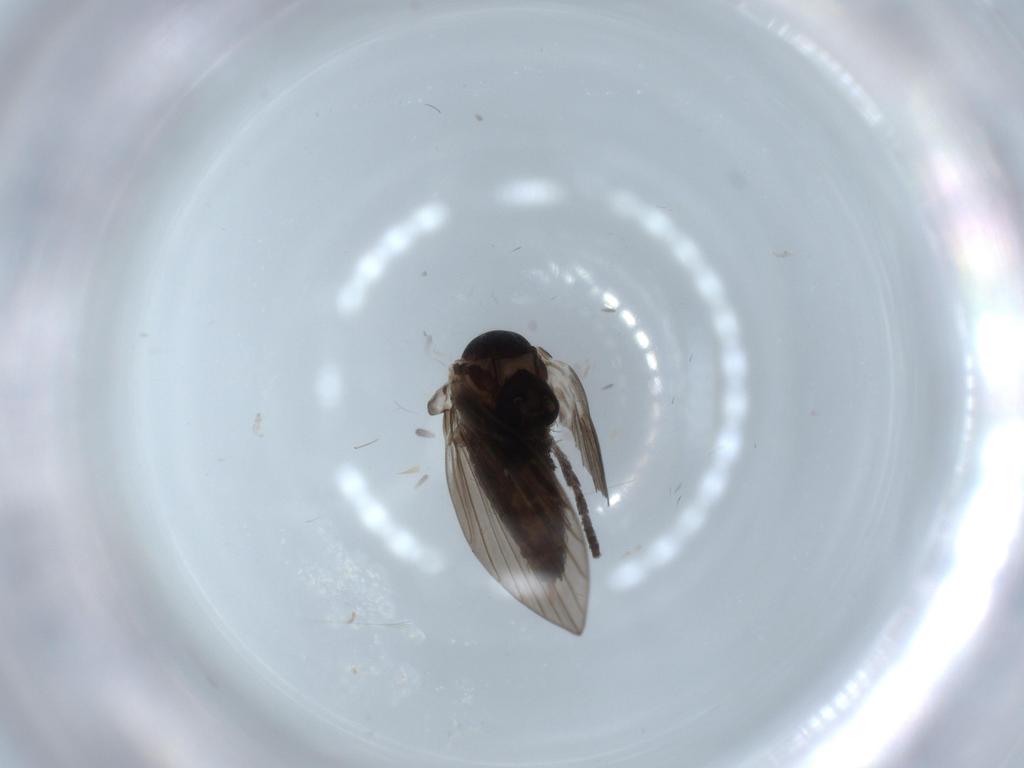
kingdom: Animalia
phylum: Arthropoda
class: Insecta
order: Diptera
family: Psychodidae
